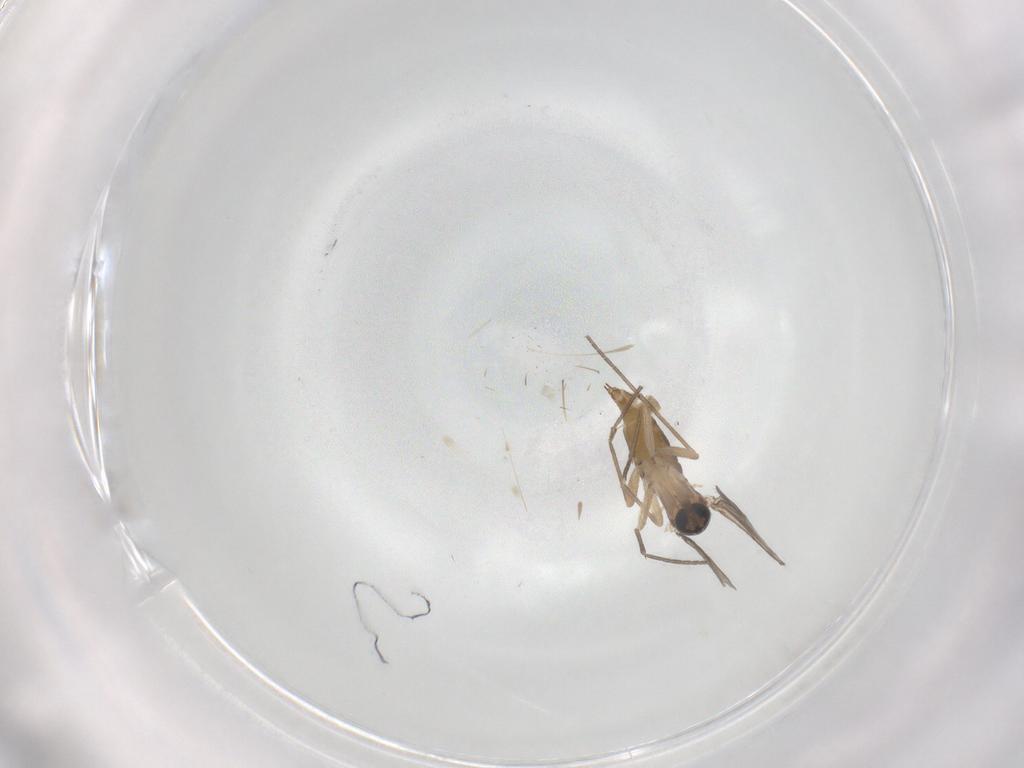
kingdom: Animalia
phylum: Arthropoda
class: Insecta
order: Diptera
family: Sciaridae
